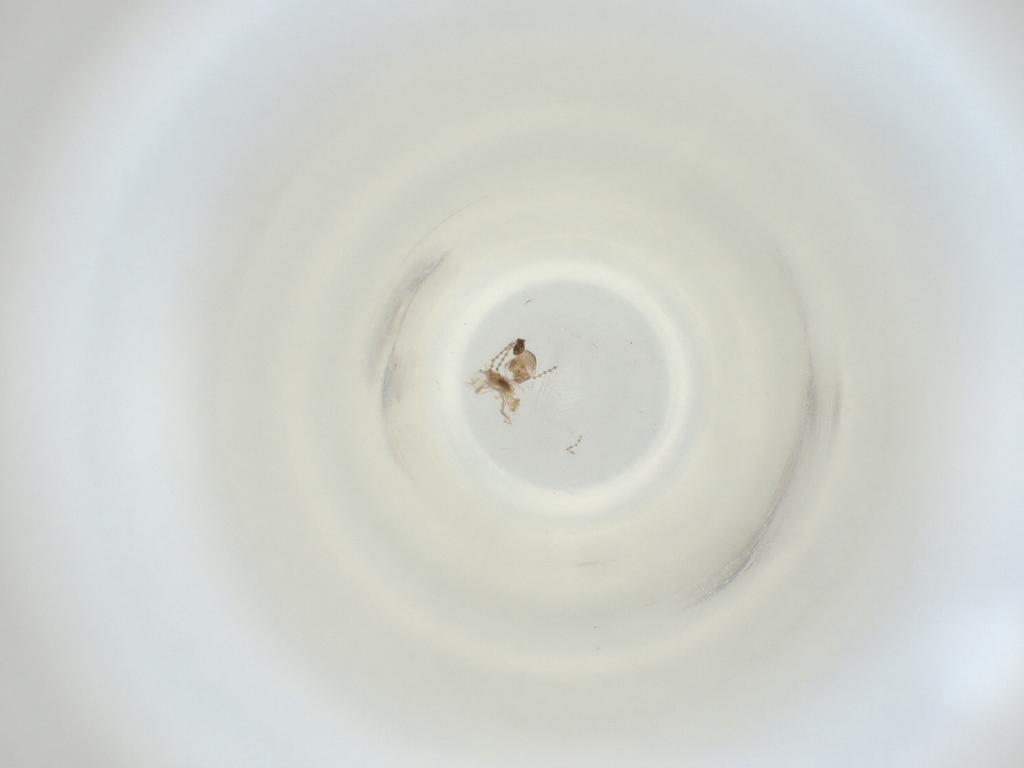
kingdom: Animalia
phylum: Arthropoda
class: Insecta
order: Diptera
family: Cecidomyiidae
